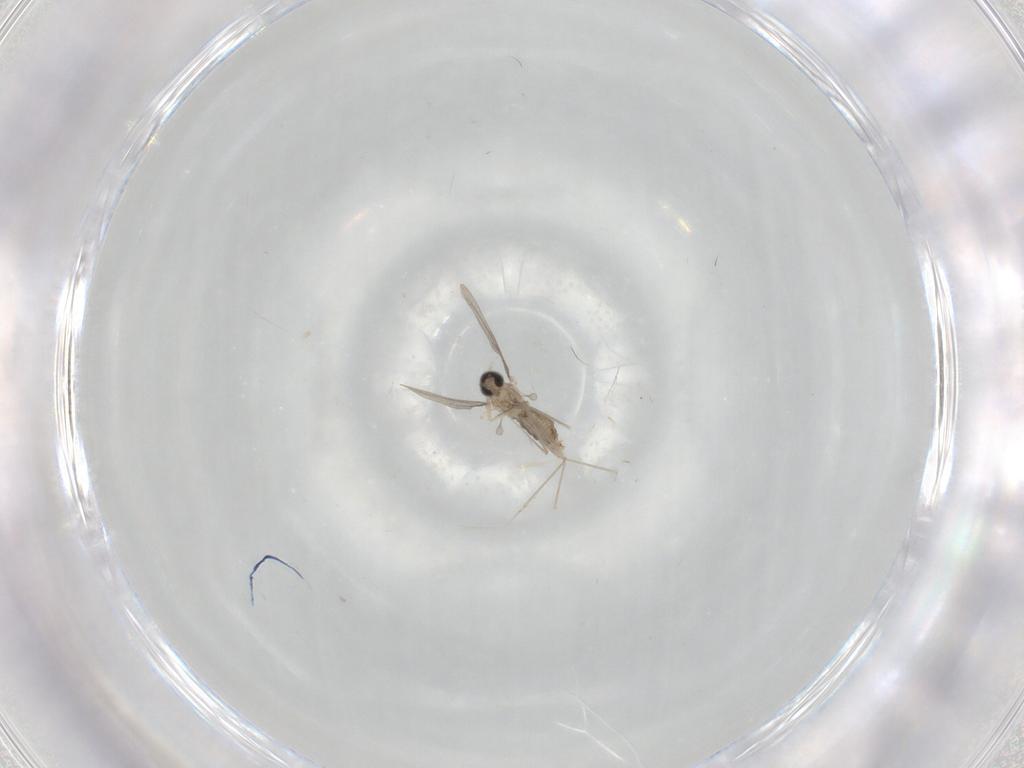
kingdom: Animalia
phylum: Arthropoda
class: Insecta
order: Diptera
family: Cecidomyiidae
